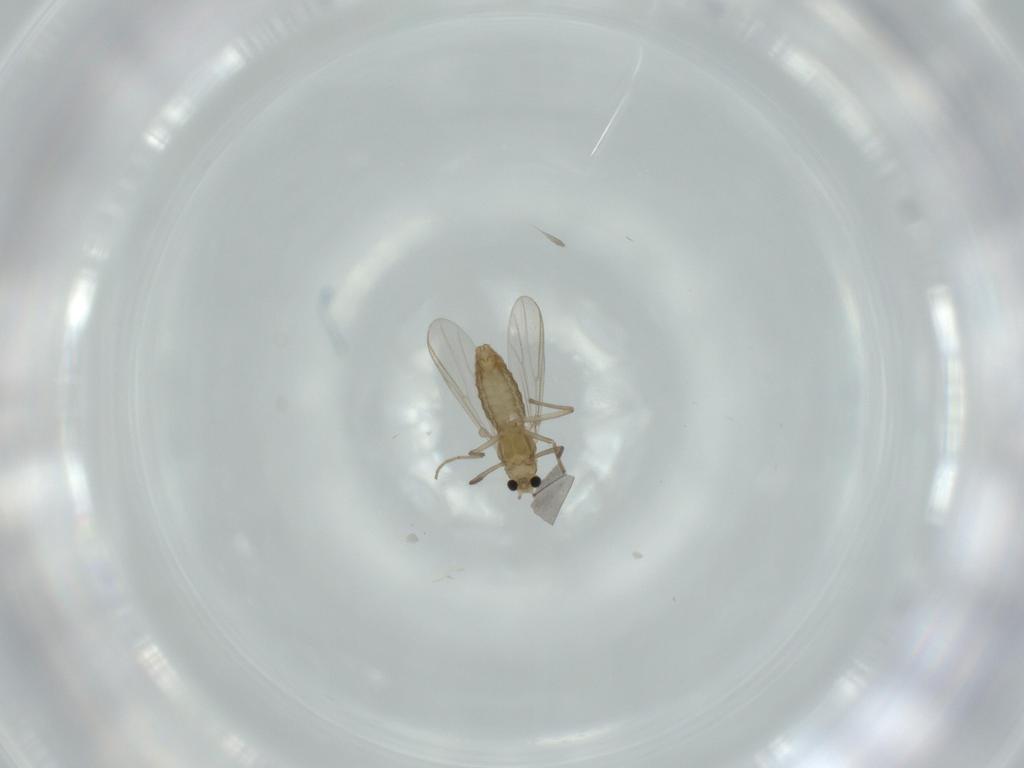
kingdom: Animalia
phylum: Arthropoda
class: Insecta
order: Diptera
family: Chironomidae
